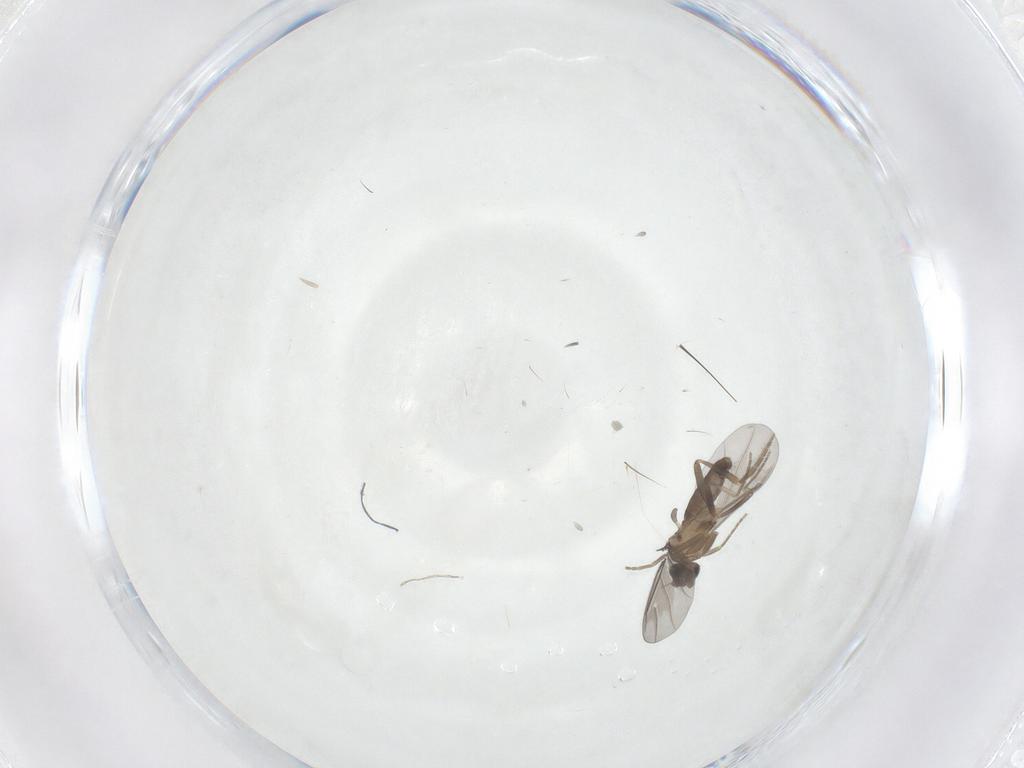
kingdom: Animalia
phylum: Arthropoda
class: Insecta
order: Diptera
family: Phoridae
